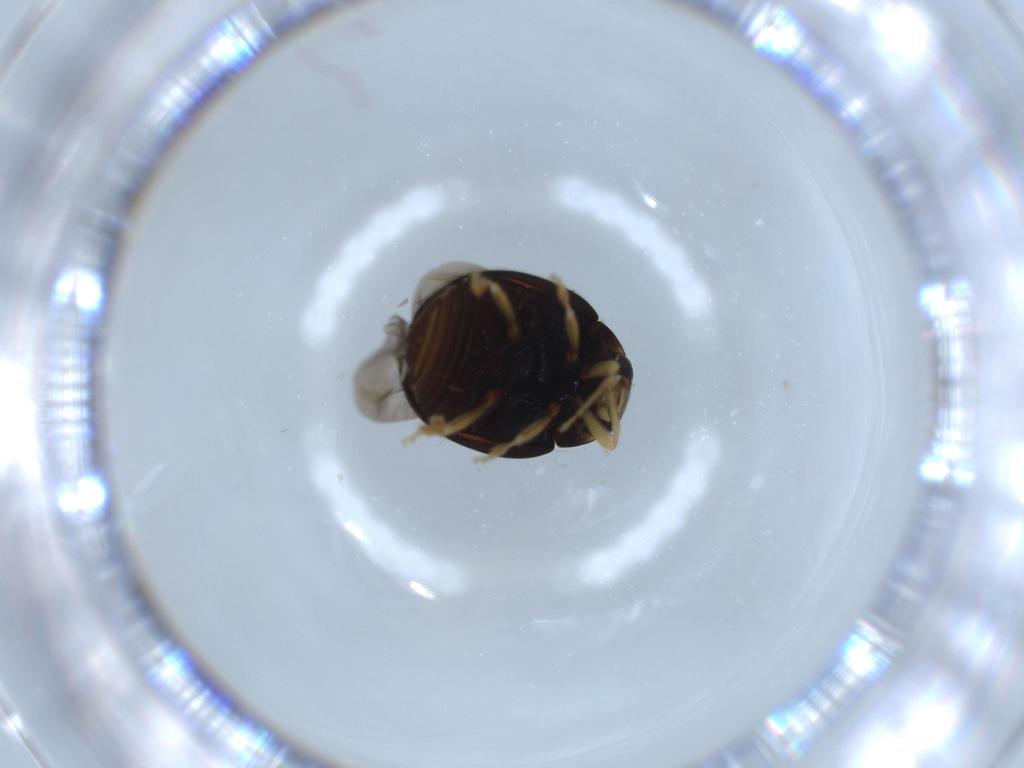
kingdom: Animalia
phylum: Arthropoda
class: Insecta
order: Coleoptera
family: Coccinellidae
